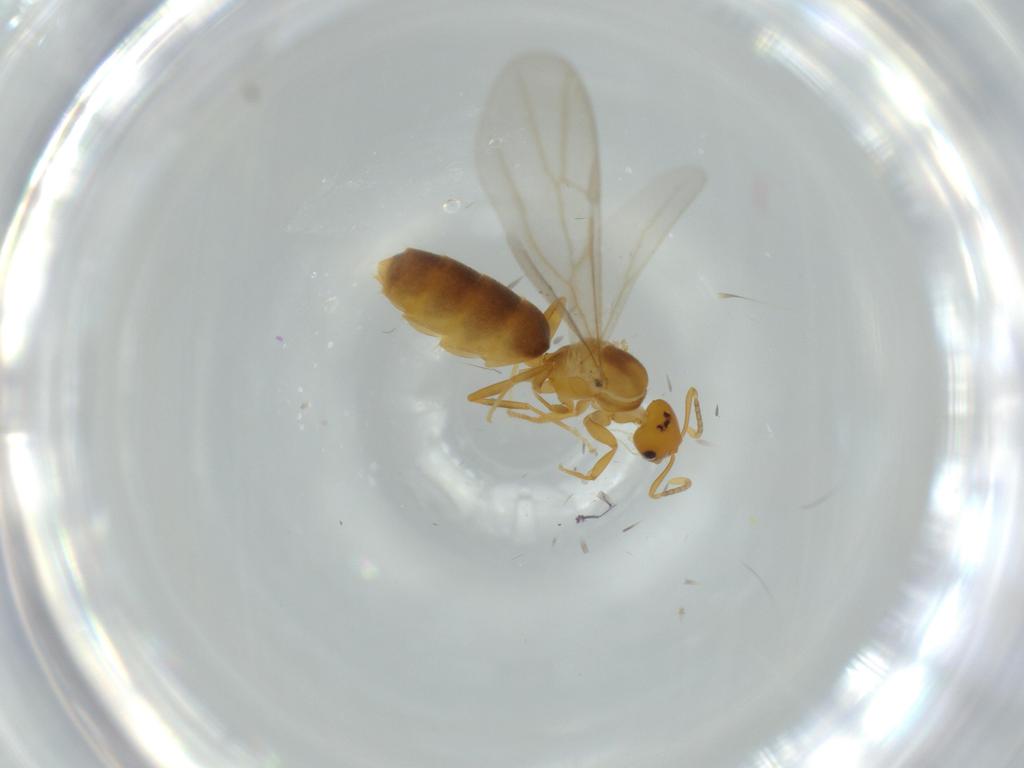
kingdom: Animalia
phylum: Arthropoda
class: Insecta
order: Hymenoptera
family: Formicidae
